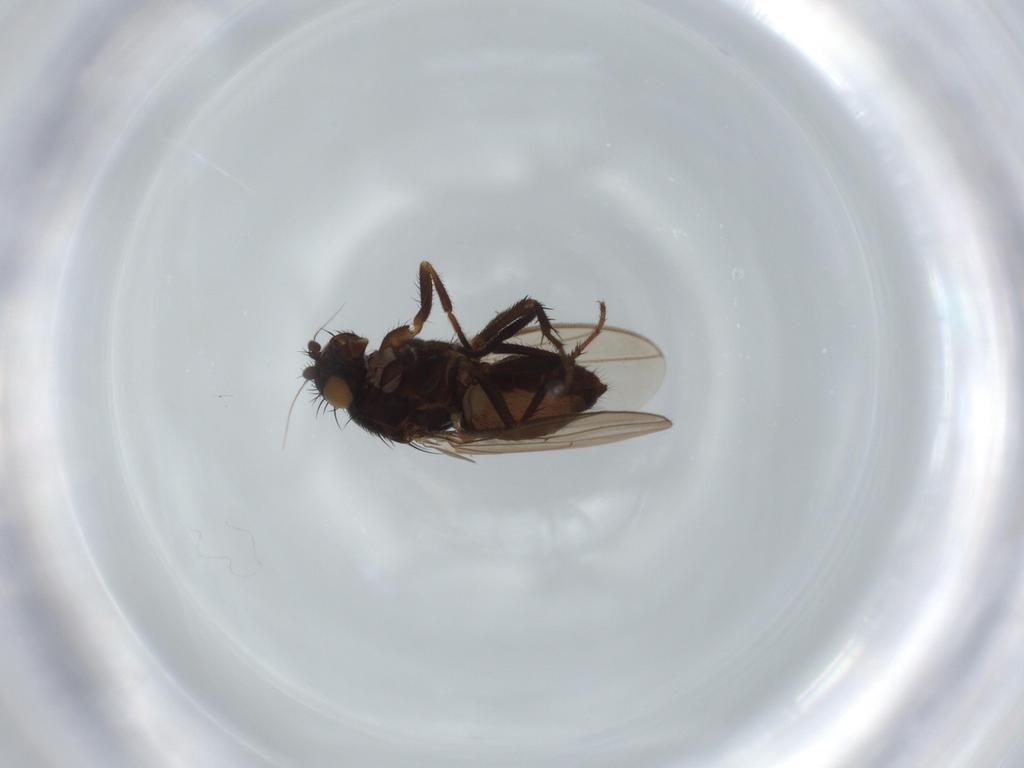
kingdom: Animalia
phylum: Arthropoda
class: Insecta
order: Diptera
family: Sphaeroceridae
